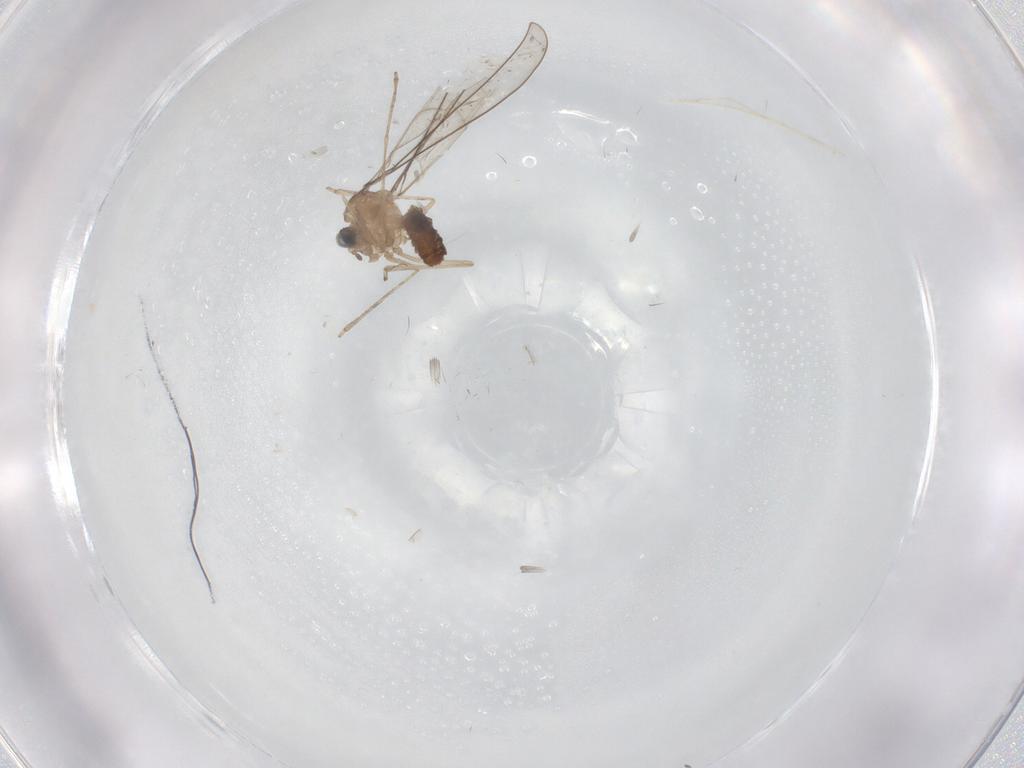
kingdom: Animalia
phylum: Arthropoda
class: Insecta
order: Diptera
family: Cecidomyiidae
